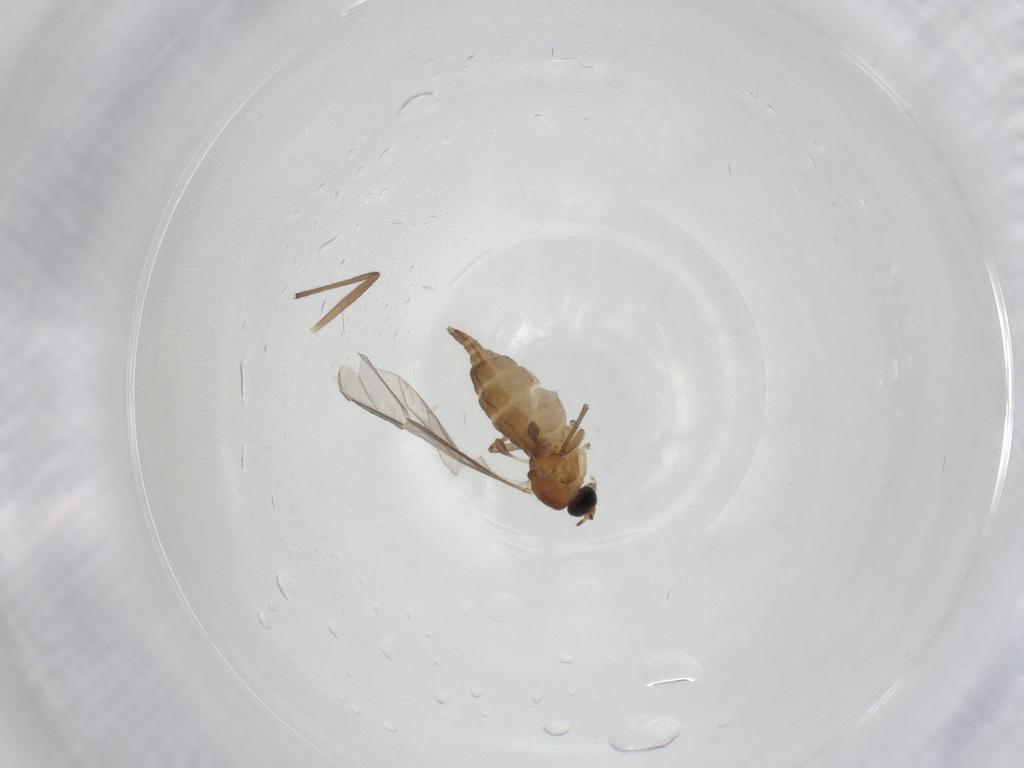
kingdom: Animalia
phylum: Arthropoda
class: Insecta
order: Diptera
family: Sciaridae
